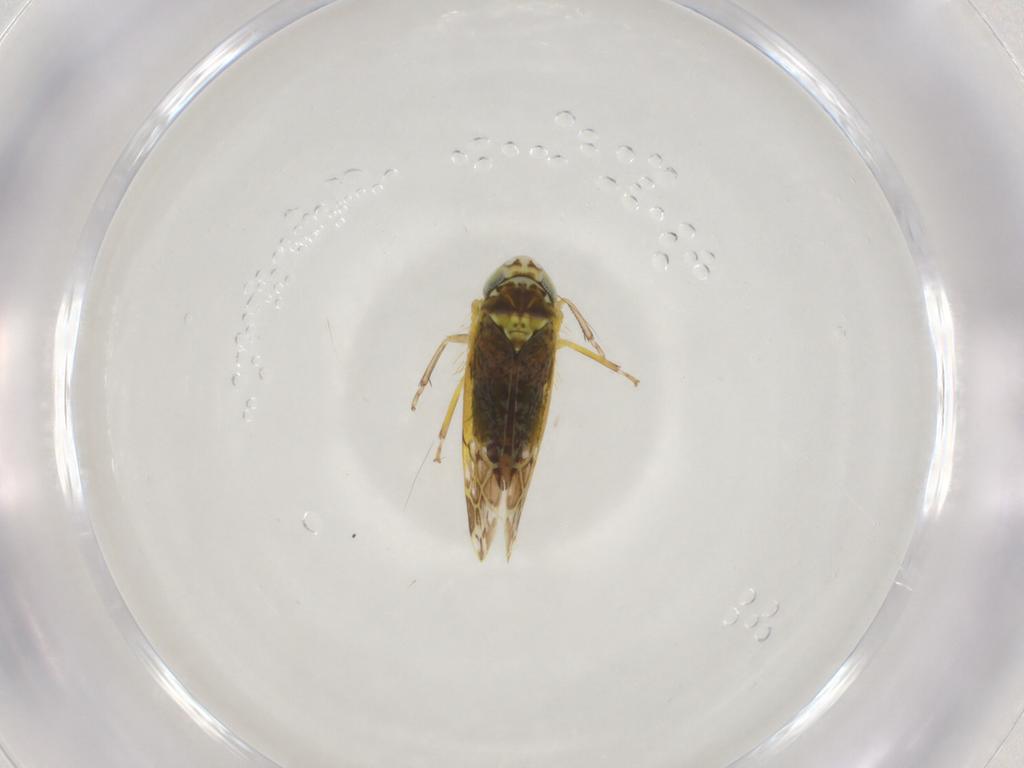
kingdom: Animalia
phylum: Arthropoda
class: Insecta
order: Hemiptera
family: Cicadellidae
